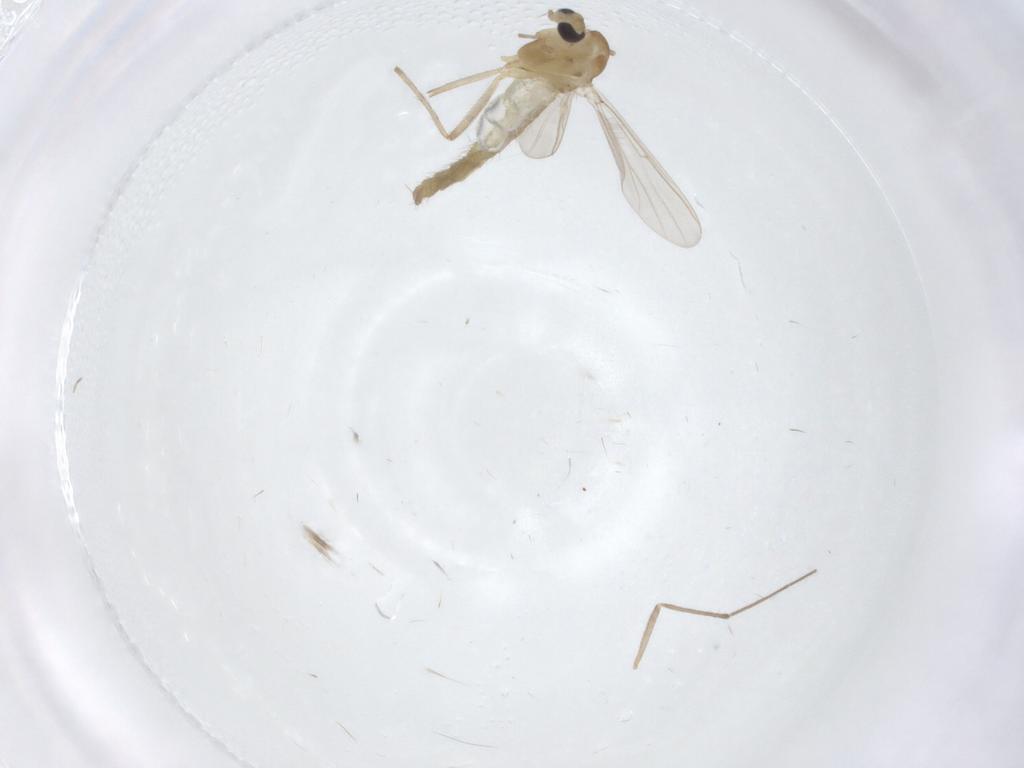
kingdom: Animalia
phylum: Arthropoda
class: Insecta
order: Diptera
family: Chironomidae
